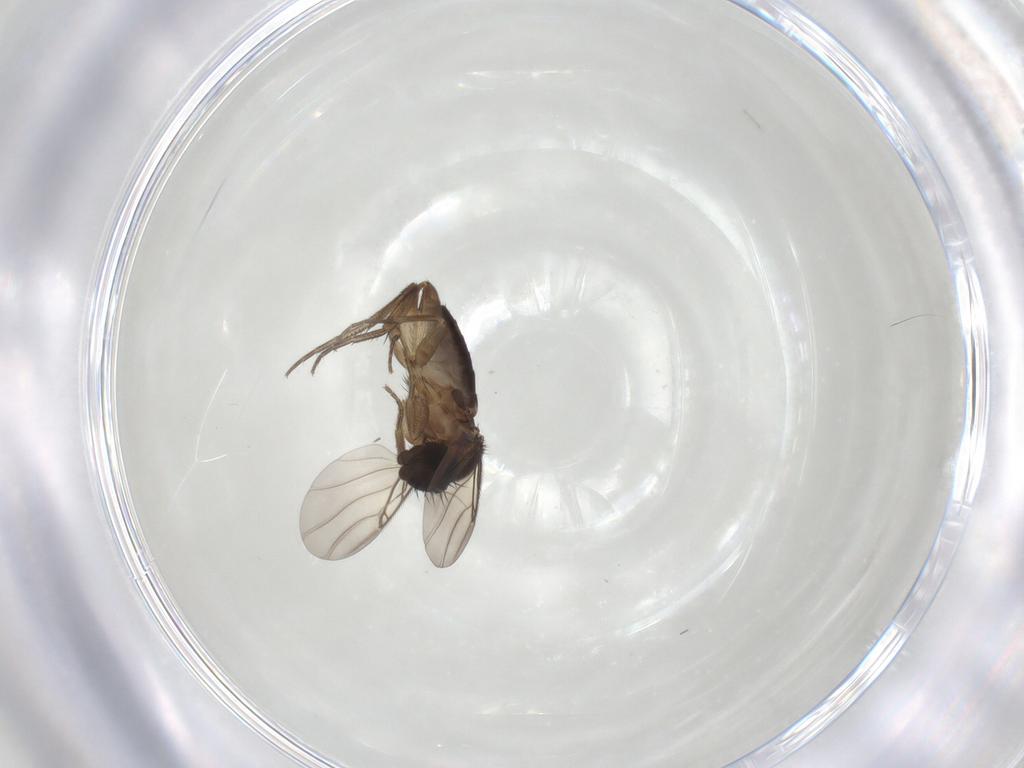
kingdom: Animalia
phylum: Arthropoda
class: Insecta
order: Diptera
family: Phoridae
